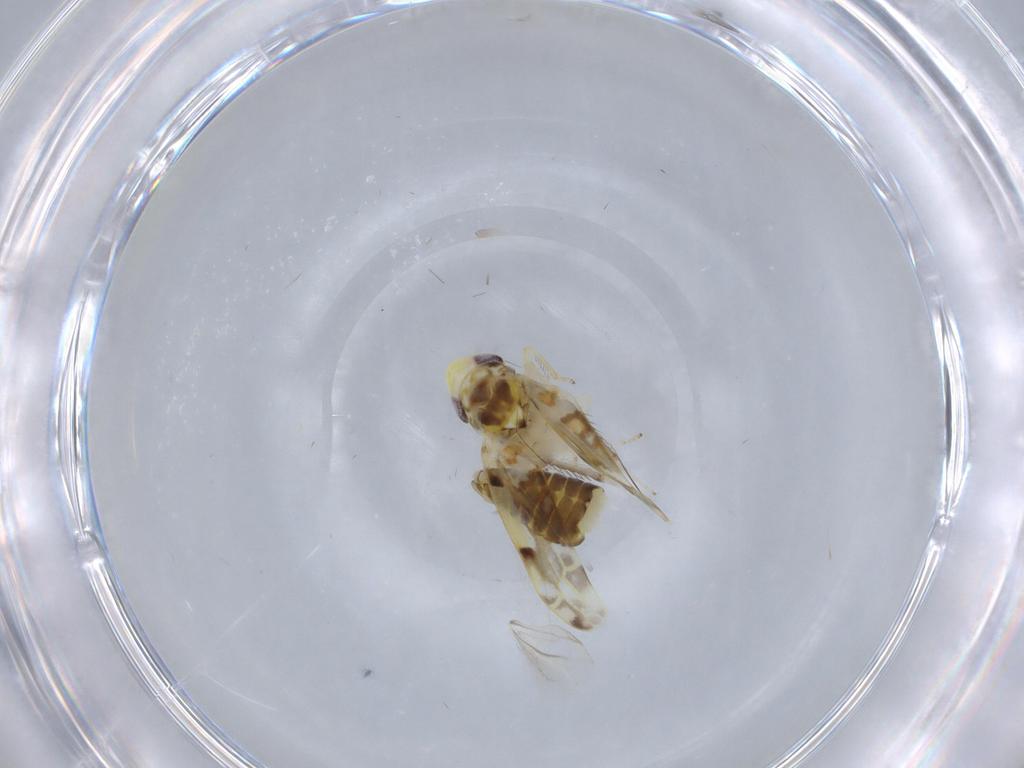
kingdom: Animalia
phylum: Arthropoda
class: Insecta
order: Hemiptera
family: Cicadellidae
